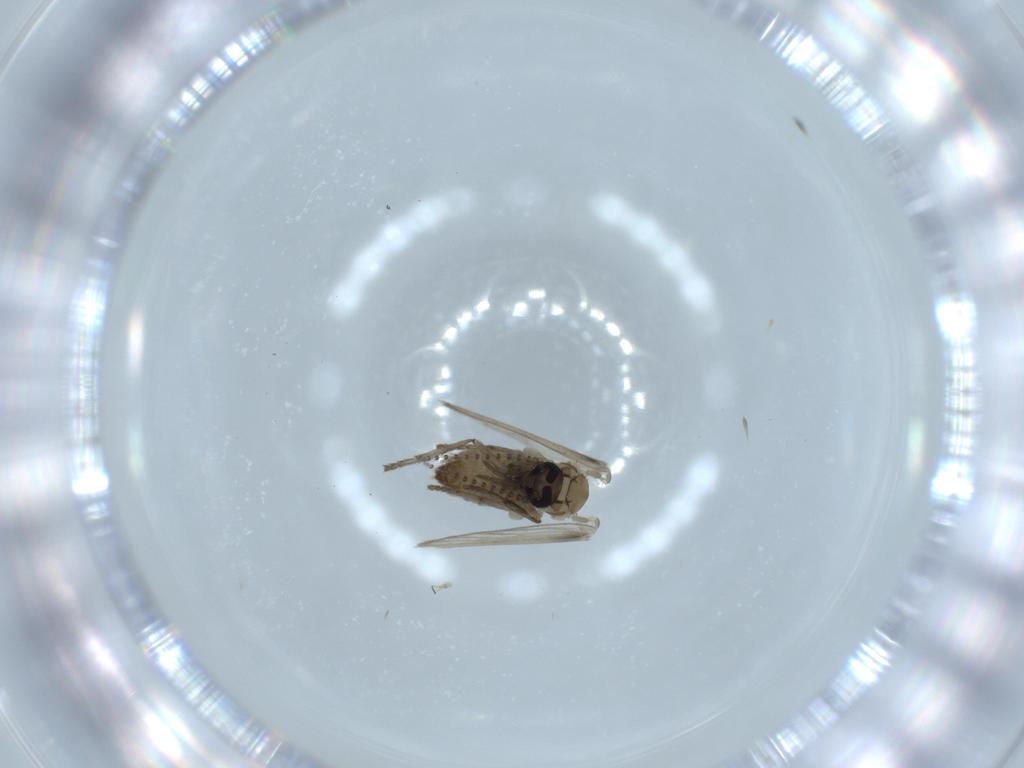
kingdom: Animalia
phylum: Arthropoda
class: Insecta
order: Diptera
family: Psychodidae
